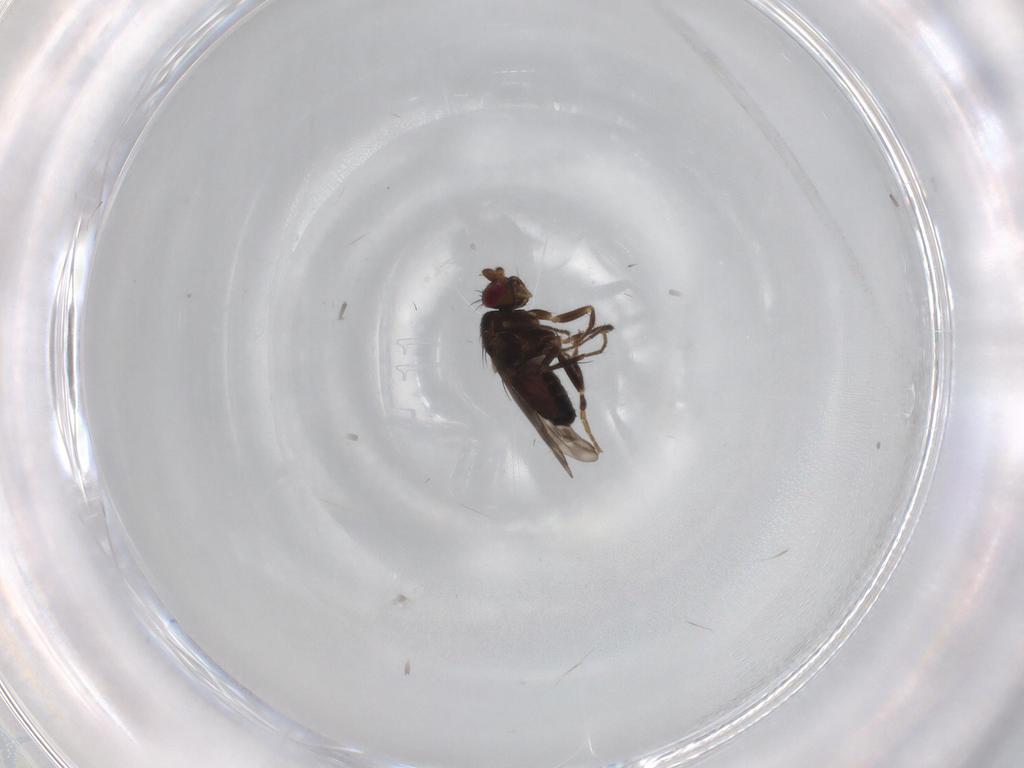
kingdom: Animalia
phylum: Arthropoda
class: Insecta
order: Diptera
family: Sphaeroceridae
